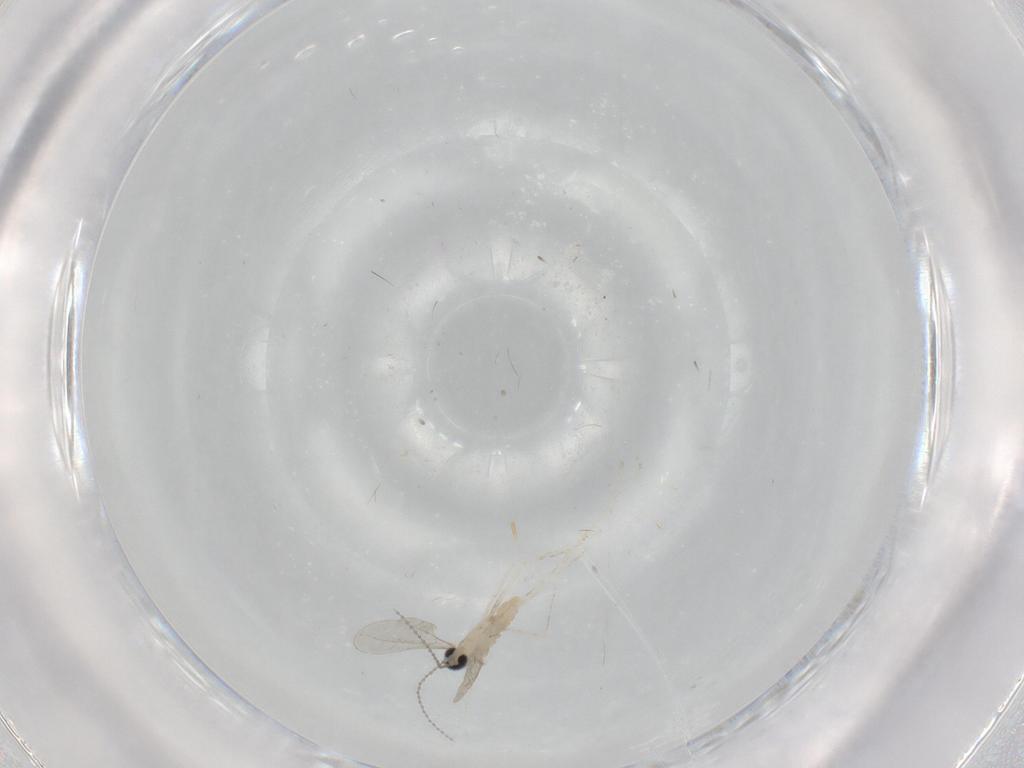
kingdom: Animalia
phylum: Arthropoda
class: Insecta
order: Diptera
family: Cecidomyiidae
